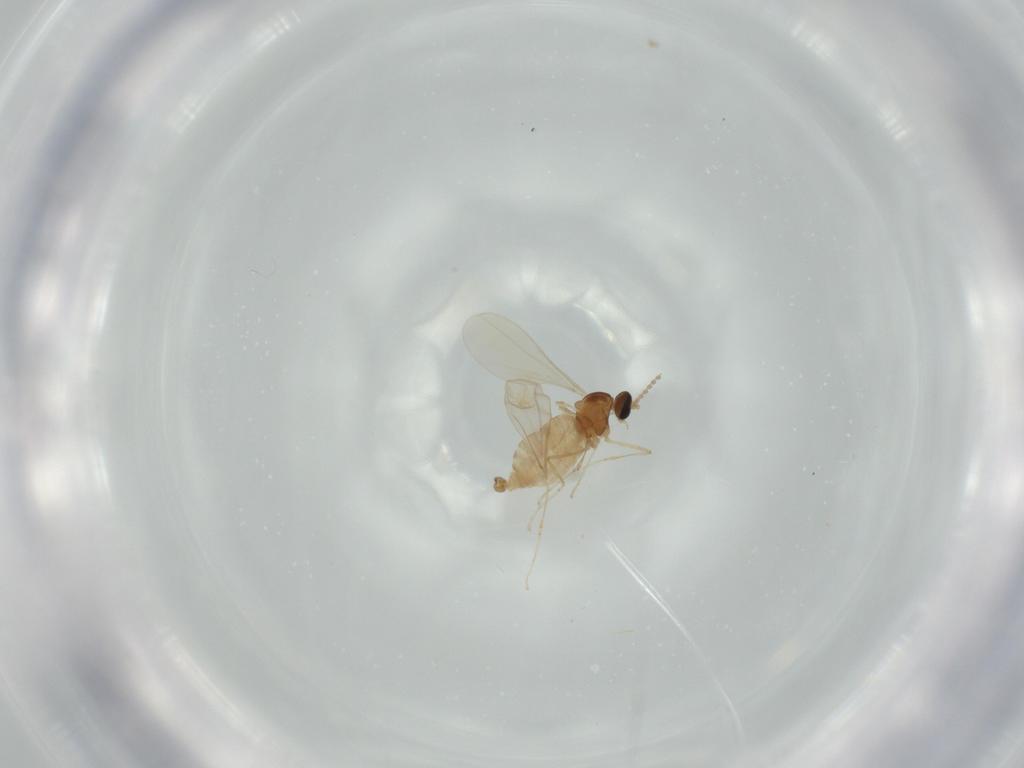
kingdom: Animalia
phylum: Arthropoda
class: Insecta
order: Diptera
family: Cecidomyiidae
